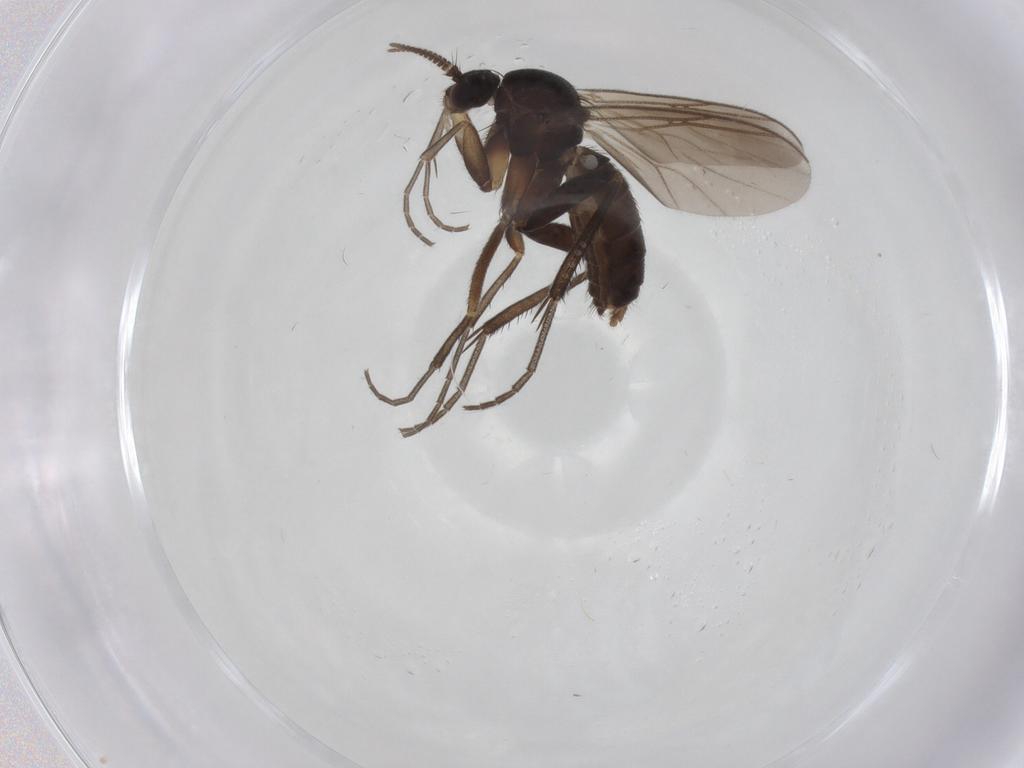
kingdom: Animalia
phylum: Arthropoda
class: Insecta
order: Diptera
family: Mycetophilidae
